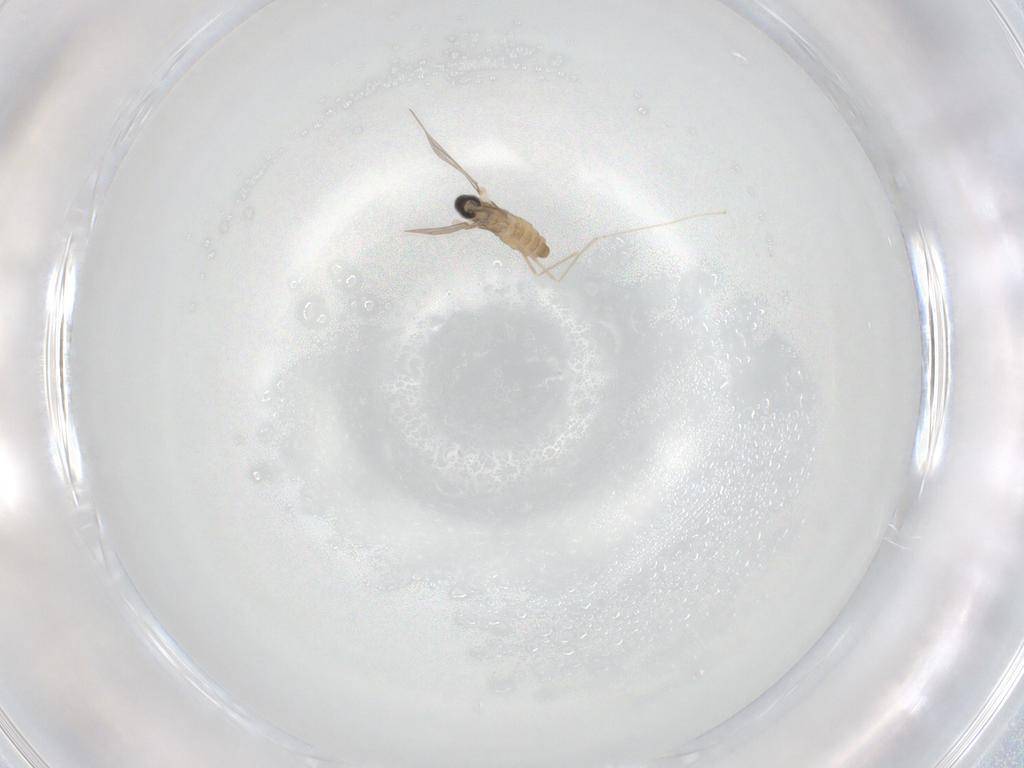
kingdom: Animalia
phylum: Arthropoda
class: Insecta
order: Diptera
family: Cecidomyiidae
